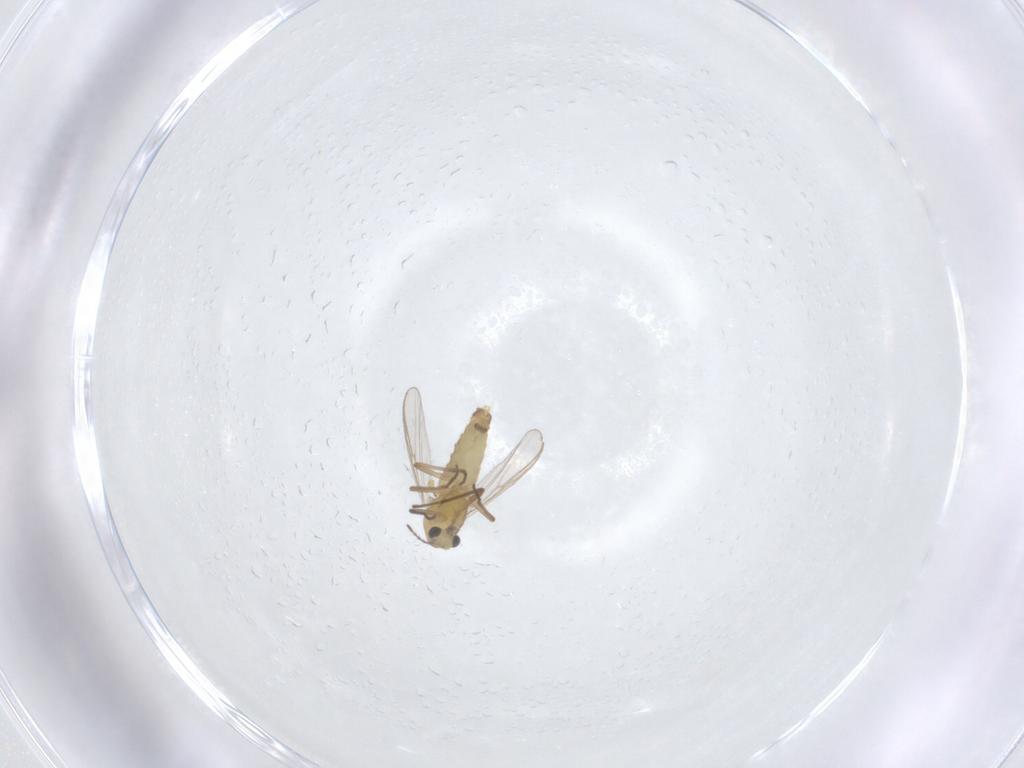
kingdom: Animalia
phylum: Arthropoda
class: Insecta
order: Diptera
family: Chironomidae
